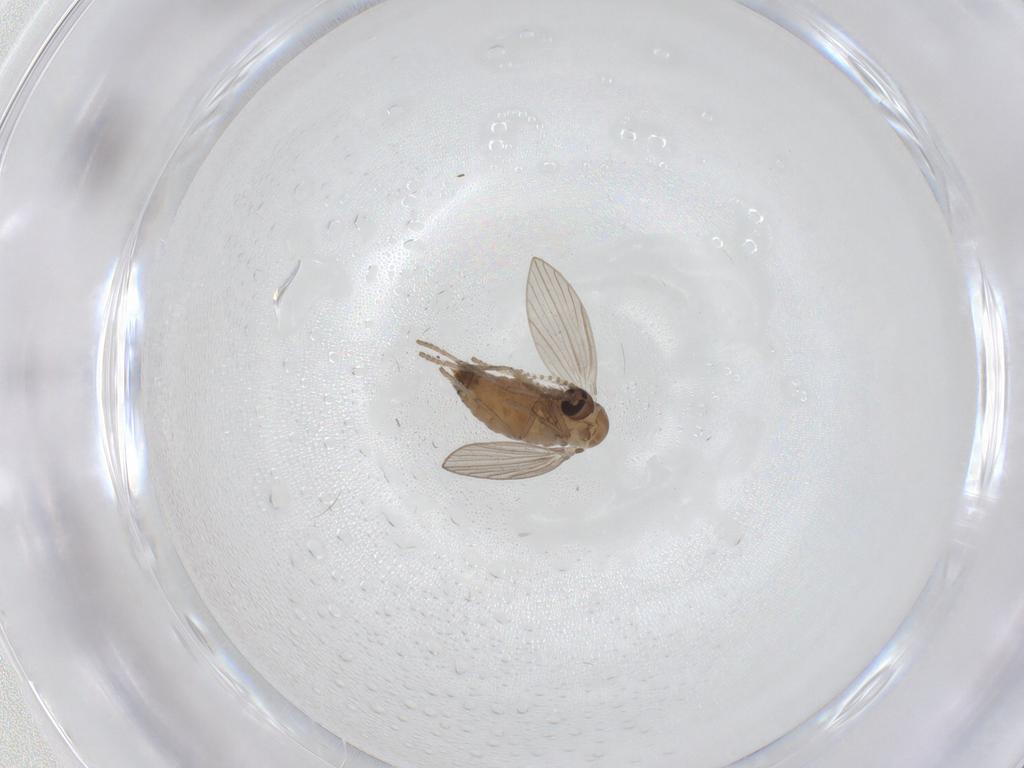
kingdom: Animalia
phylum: Arthropoda
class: Insecta
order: Diptera
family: Psychodidae
